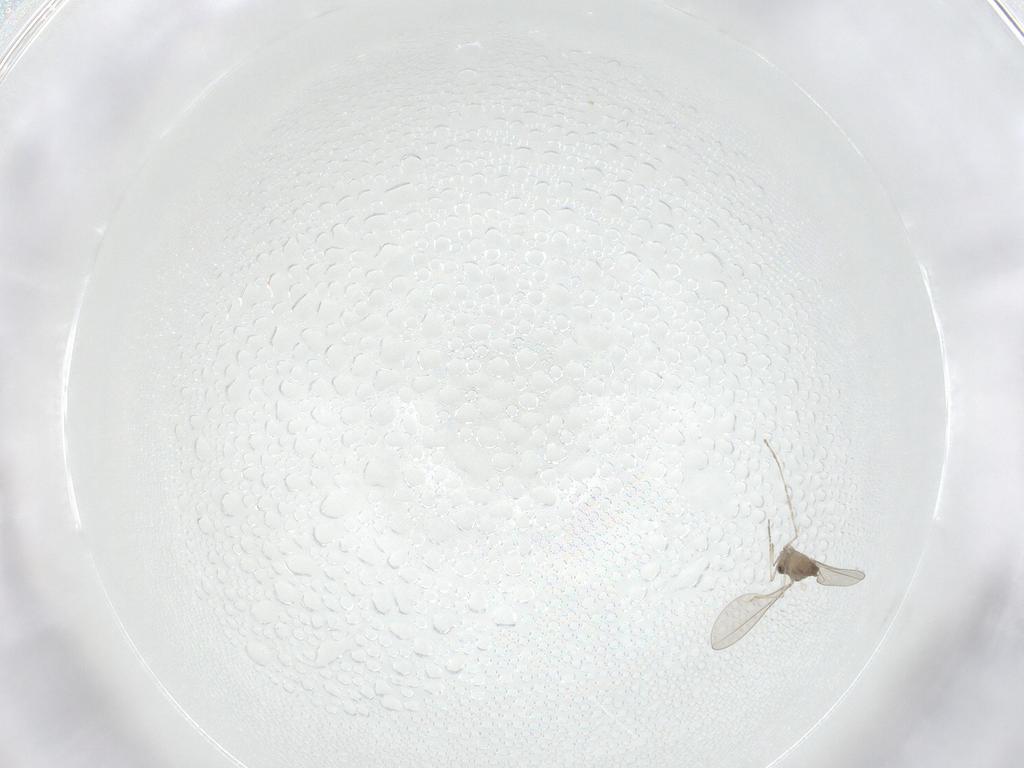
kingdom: Animalia
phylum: Arthropoda
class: Insecta
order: Diptera
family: Cecidomyiidae
